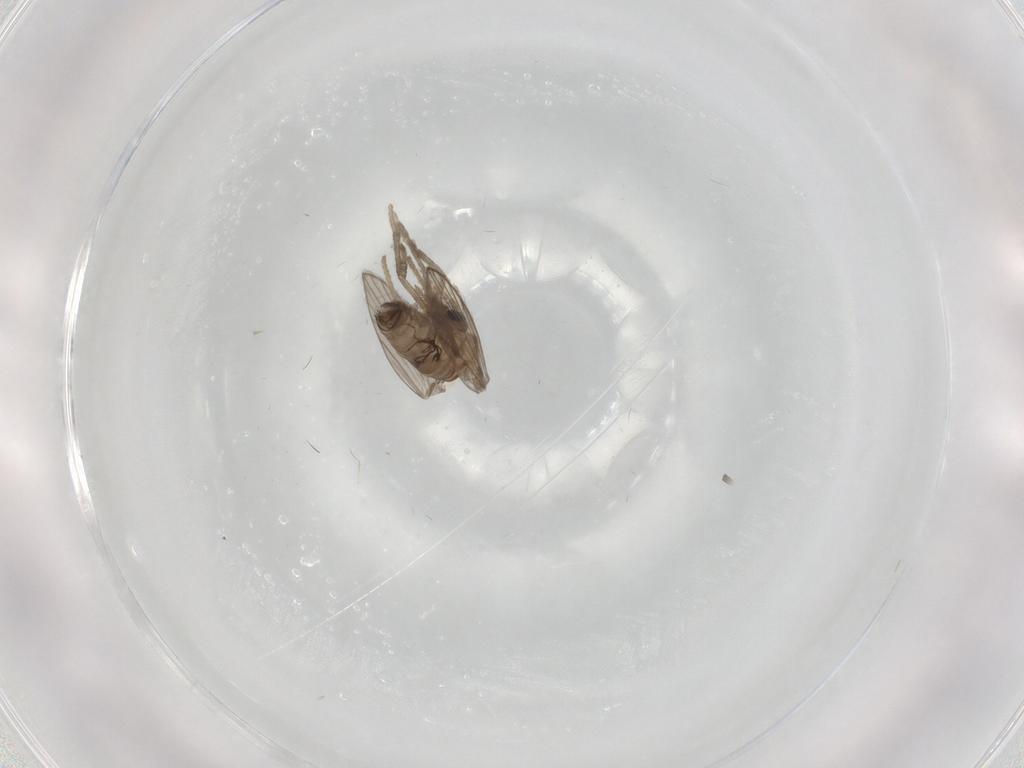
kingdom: Animalia
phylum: Arthropoda
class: Insecta
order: Diptera
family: Psychodidae
